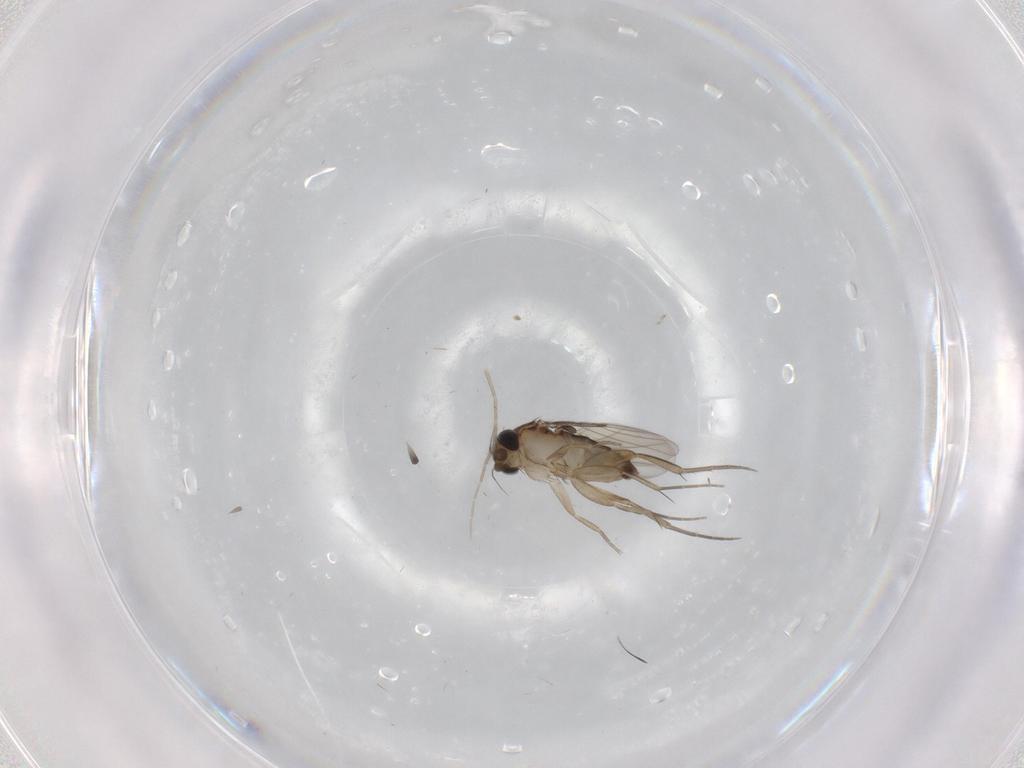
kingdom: Animalia
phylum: Arthropoda
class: Insecta
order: Diptera
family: Phoridae
